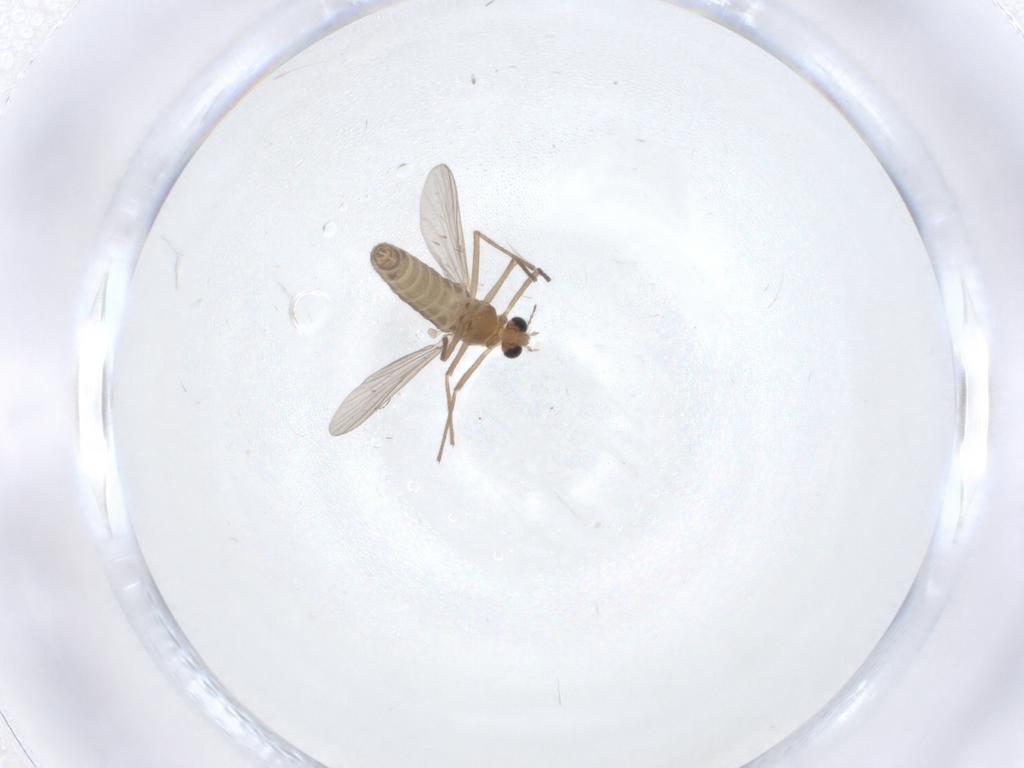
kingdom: Animalia
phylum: Arthropoda
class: Insecta
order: Diptera
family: Chironomidae
